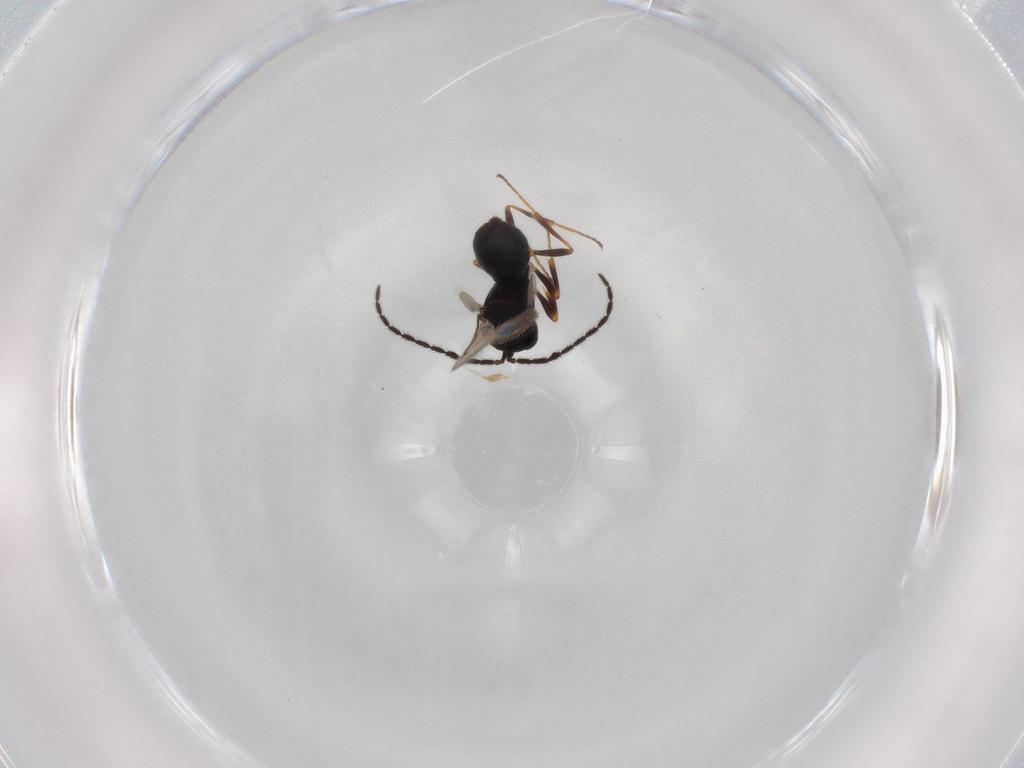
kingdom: Animalia
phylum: Arthropoda
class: Insecta
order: Hymenoptera
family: Scelionidae
